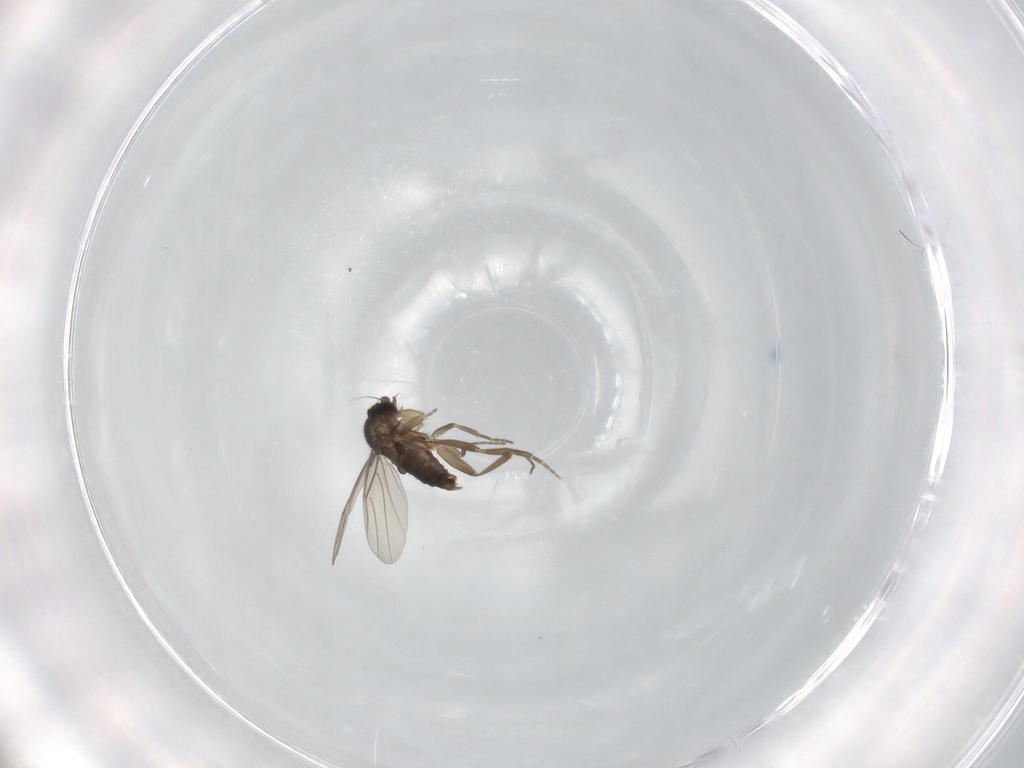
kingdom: Animalia
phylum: Arthropoda
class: Insecta
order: Diptera
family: Phoridae
